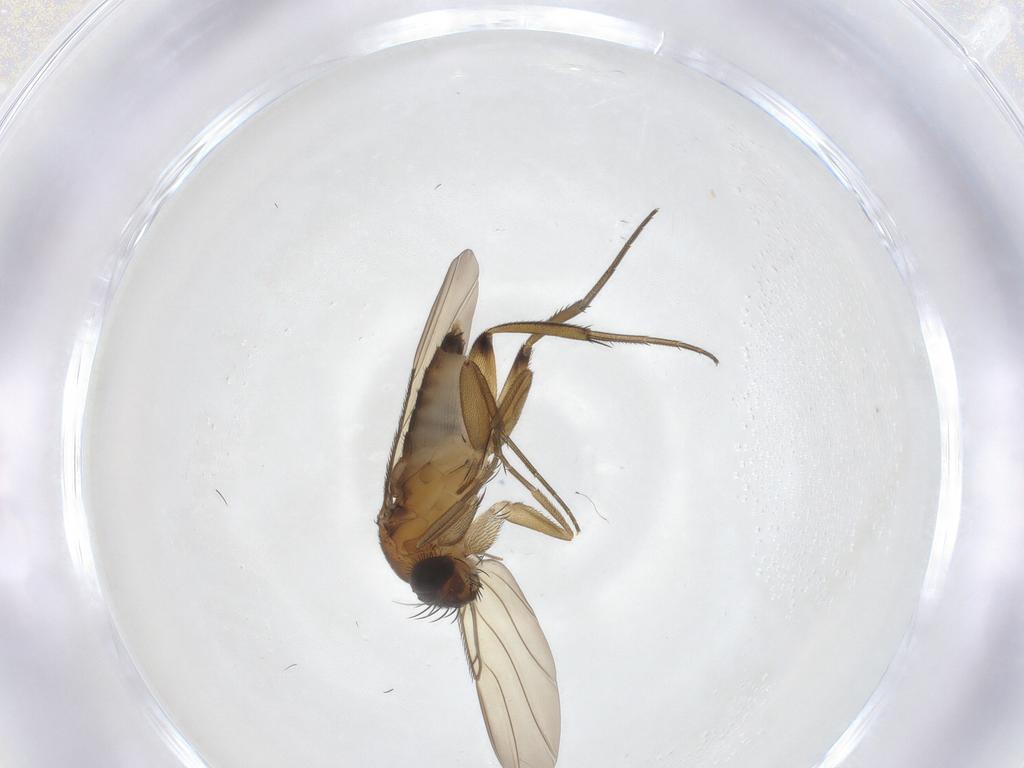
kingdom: Animalia
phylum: Arthropoda
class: Insecta
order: Diptera
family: Phoridae
